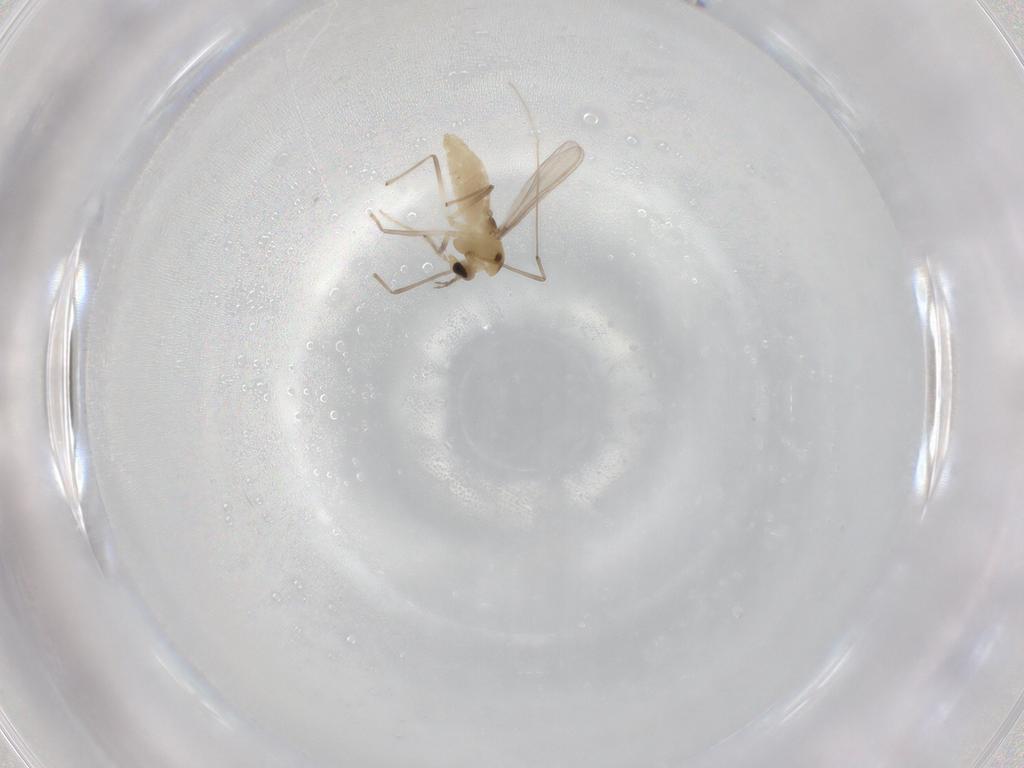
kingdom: Animalia
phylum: Arthropoda
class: Insecta
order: Diptera
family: Chironomidae
